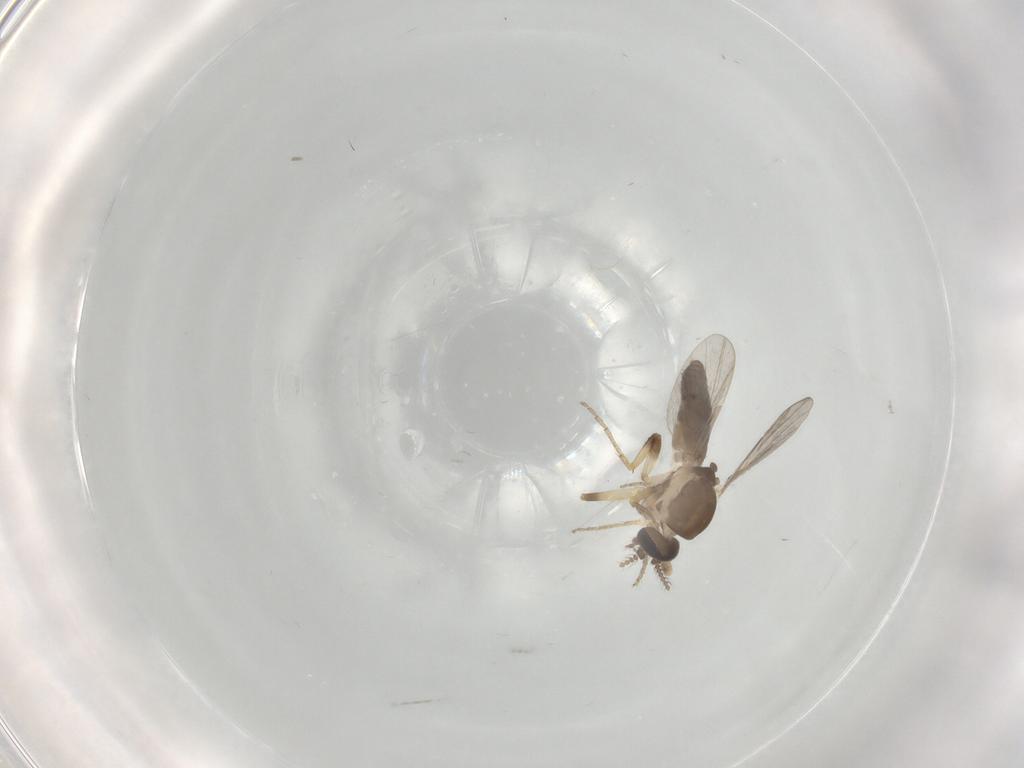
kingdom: Animalia
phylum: Arthropoda
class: Insecta
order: Diptera
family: Ceratopogonidae
